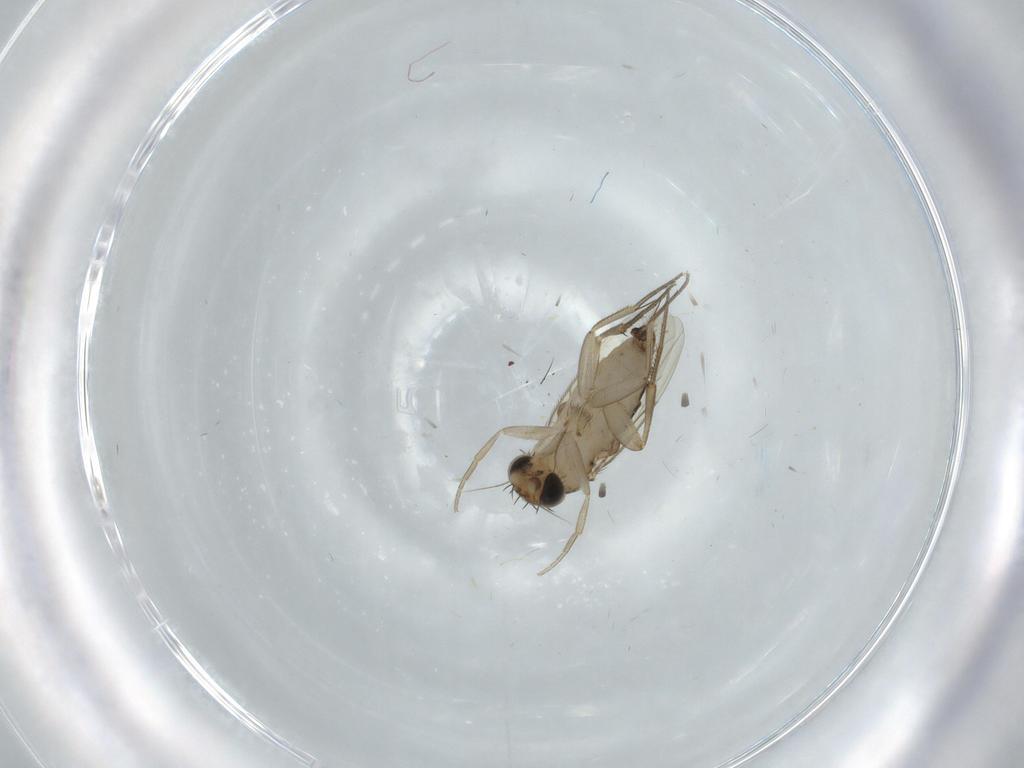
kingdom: Animalia
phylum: Arthropoda
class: Insecta
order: Diptera
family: Phoridae
